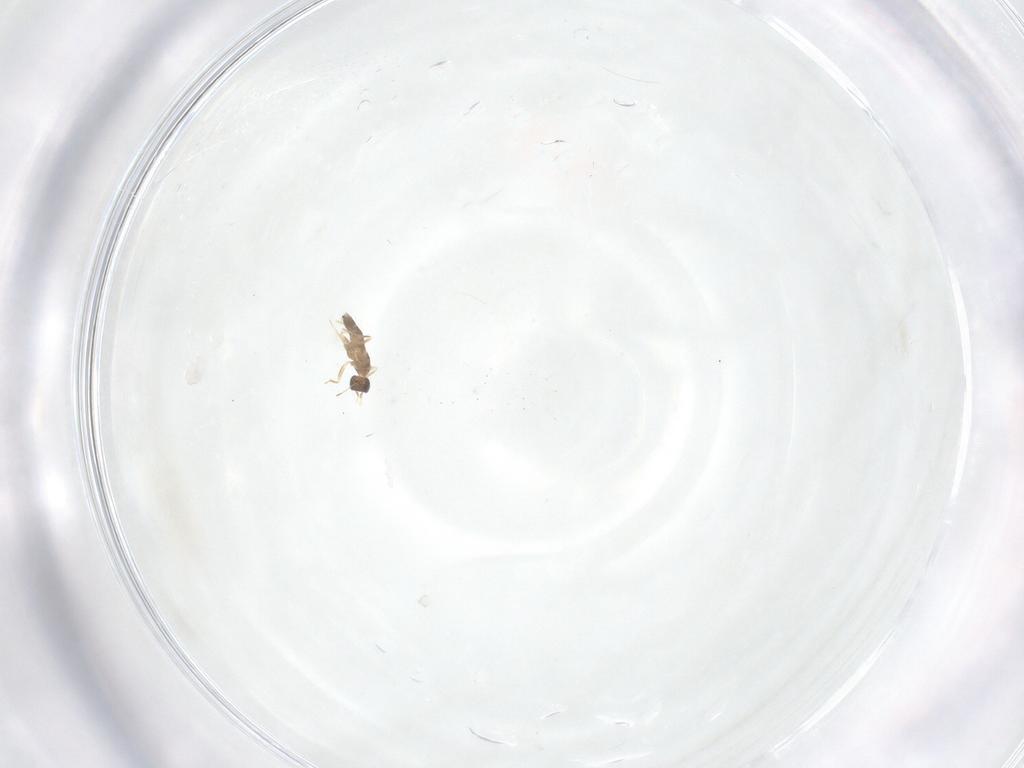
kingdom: Animalia
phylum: Arthropoda
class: Insecta
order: Hymenoptera
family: Mymaridae
